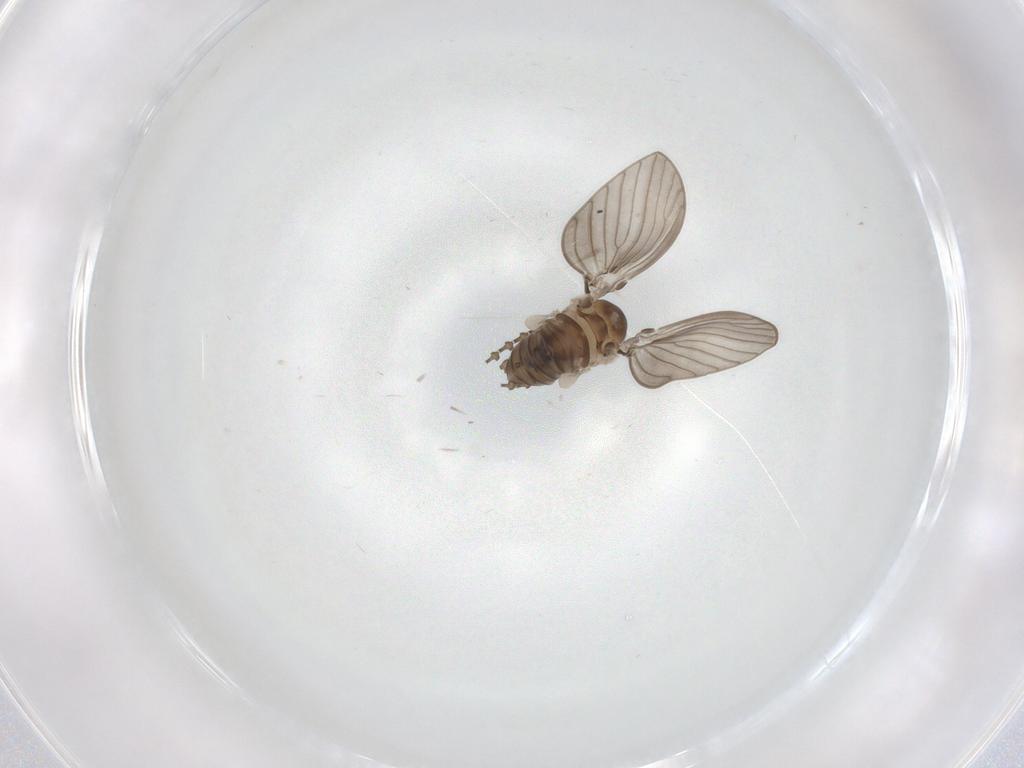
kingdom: Animalia
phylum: Arthropoda
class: Insecta
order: Diptera
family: Psychodidae
